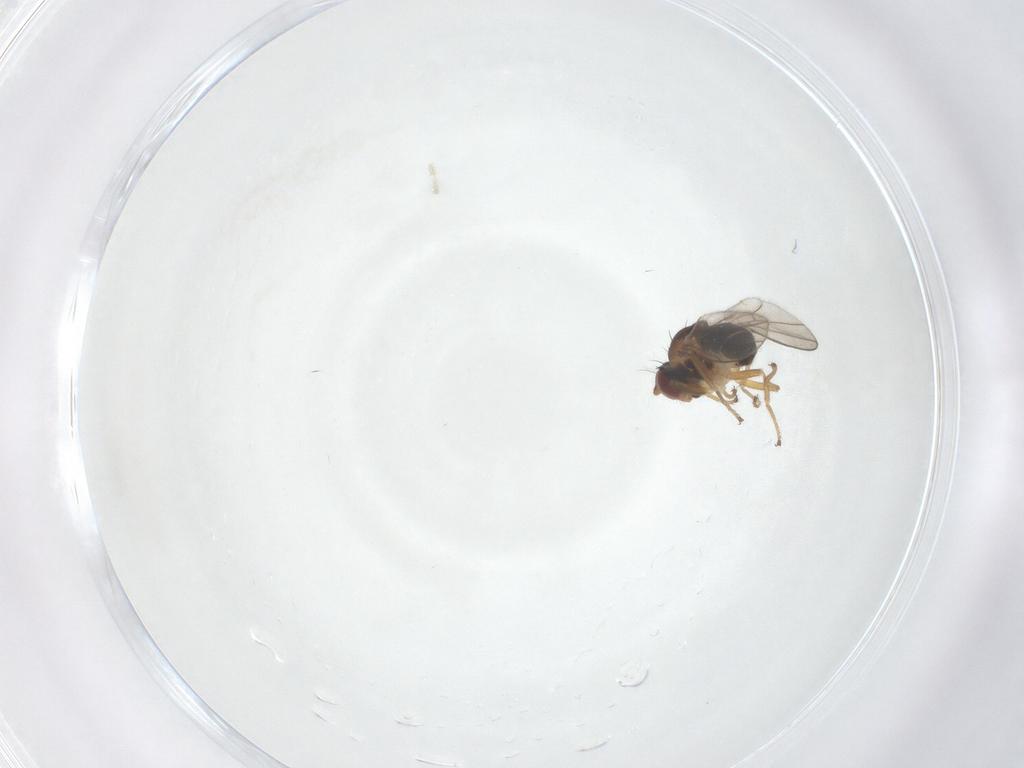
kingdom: Animalia
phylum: Arthropoda
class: Insecta
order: Diptera
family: Ephydridae
